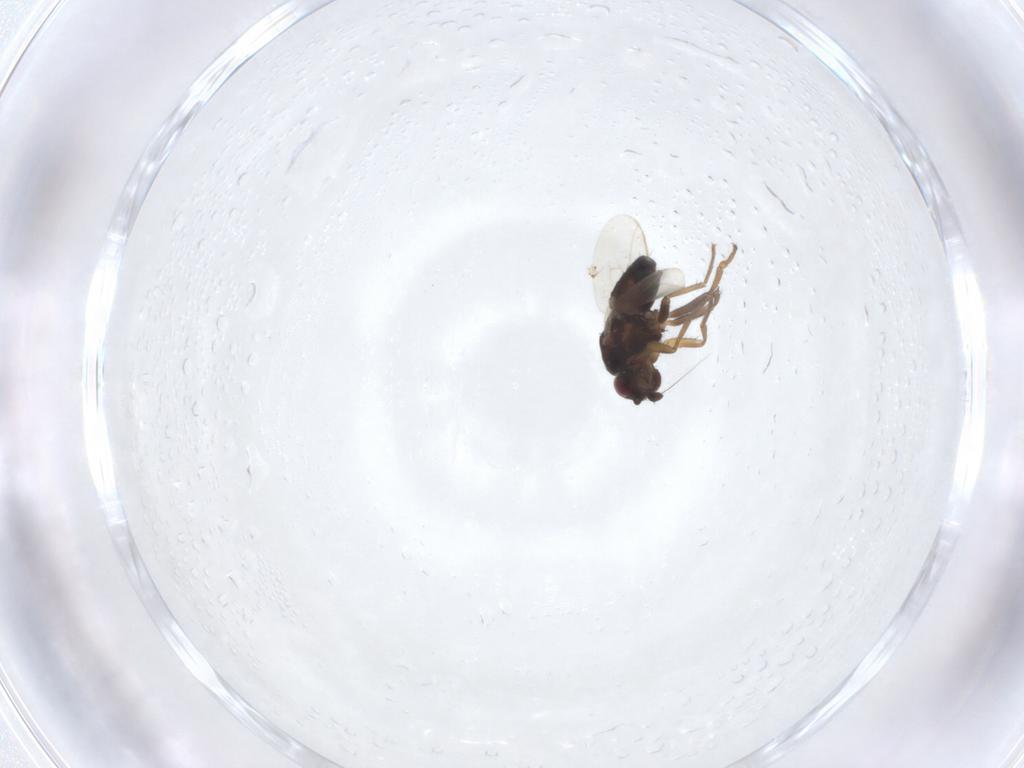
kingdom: Animalia
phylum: Arthropoda
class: Insecta
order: Diptera
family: Sphaeroceridae
